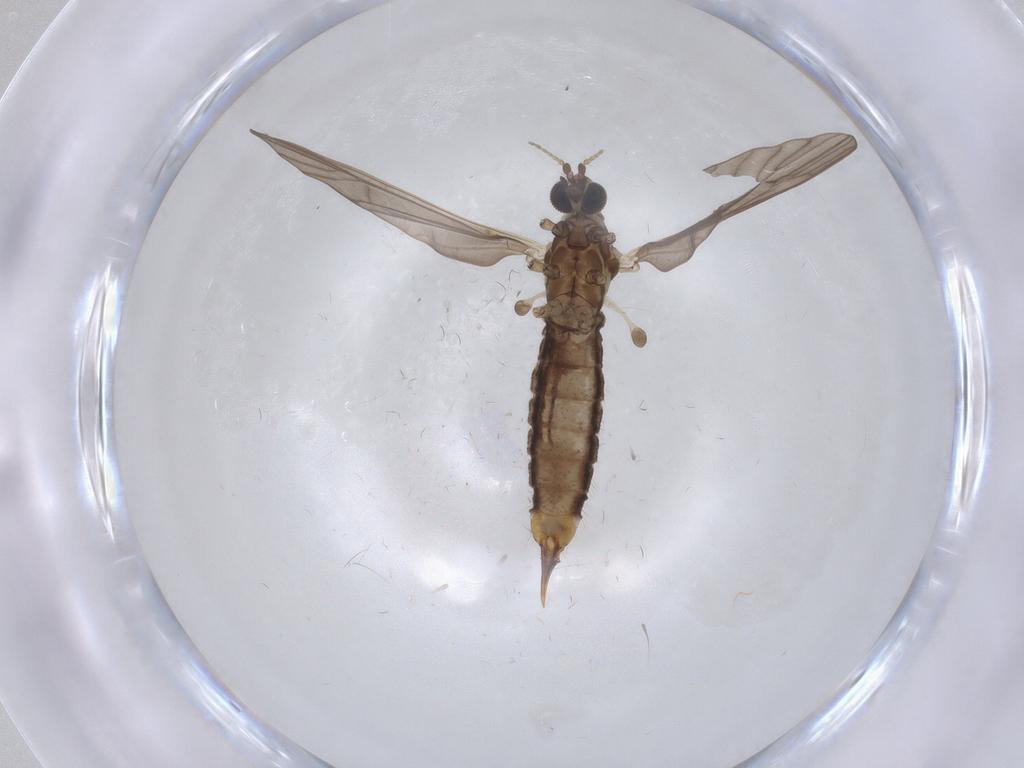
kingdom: Animalia
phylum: Arthropoda
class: Insecta
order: Diptera
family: Limoniidae
